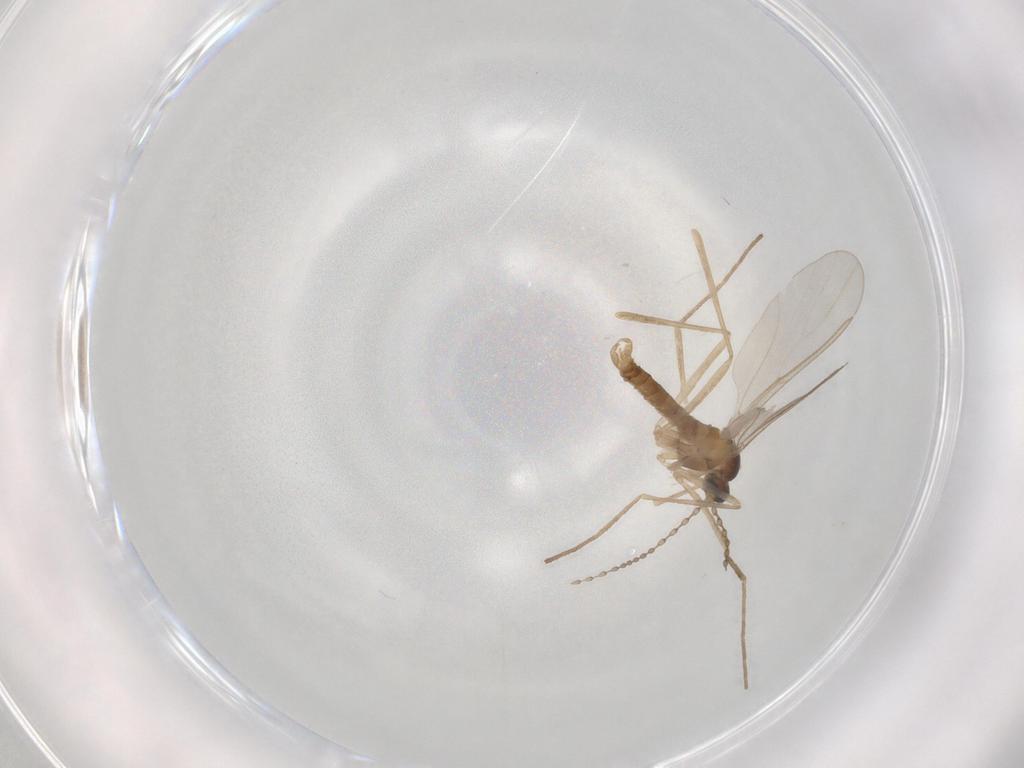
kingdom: Animalia
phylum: Arthropoda
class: Insecta
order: Diptera
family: Cecidomyiidae
